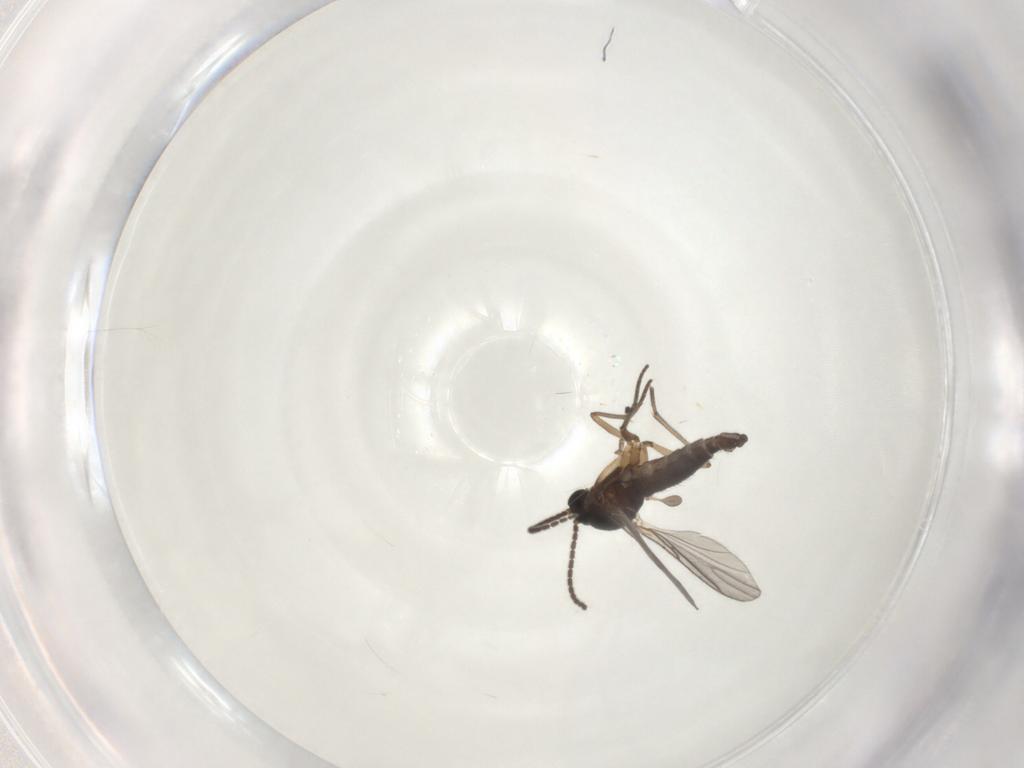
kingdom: Animalia
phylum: Arthropoda
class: Insecta
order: Diptera
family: Sciaridae
